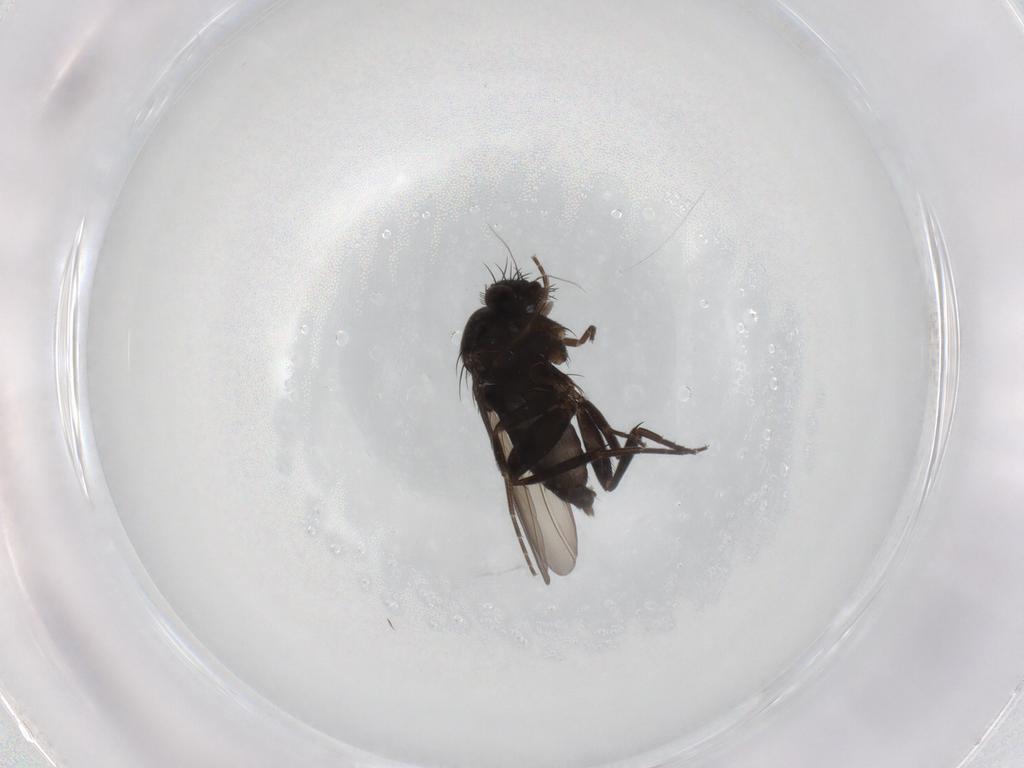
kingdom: Animalia
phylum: Arthropoda
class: Insecta
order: Diptera
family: Phoridae
